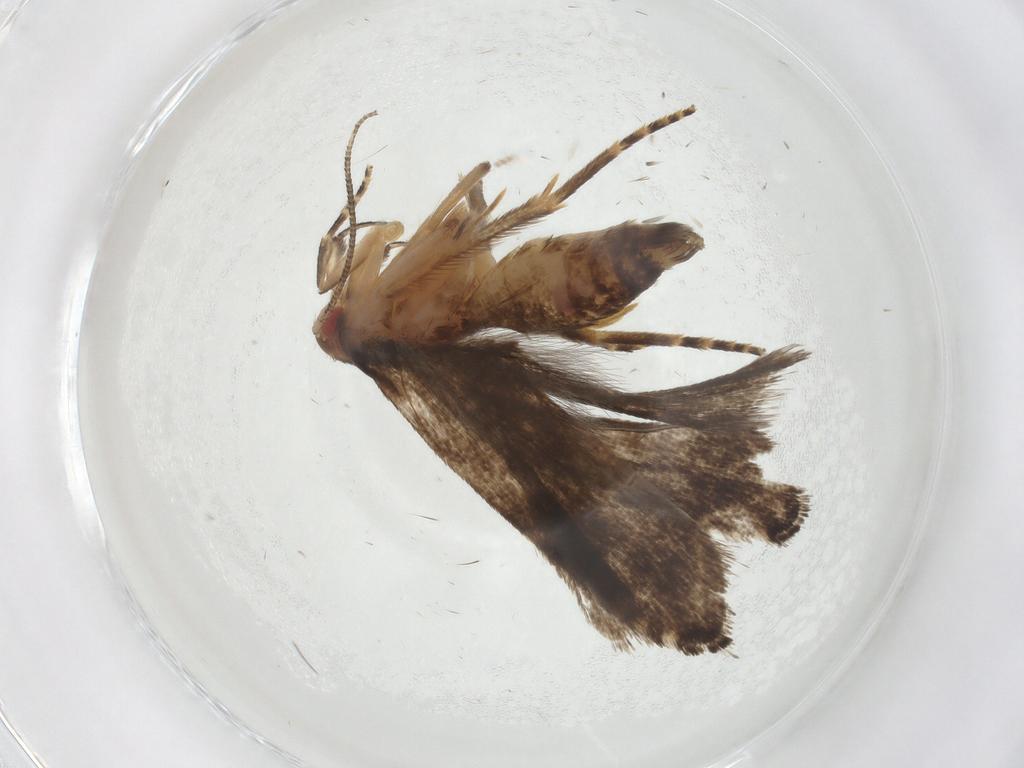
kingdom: Animalia
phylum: Arthropoda
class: Insecta
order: Lepidoptera
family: Gelechiidae
